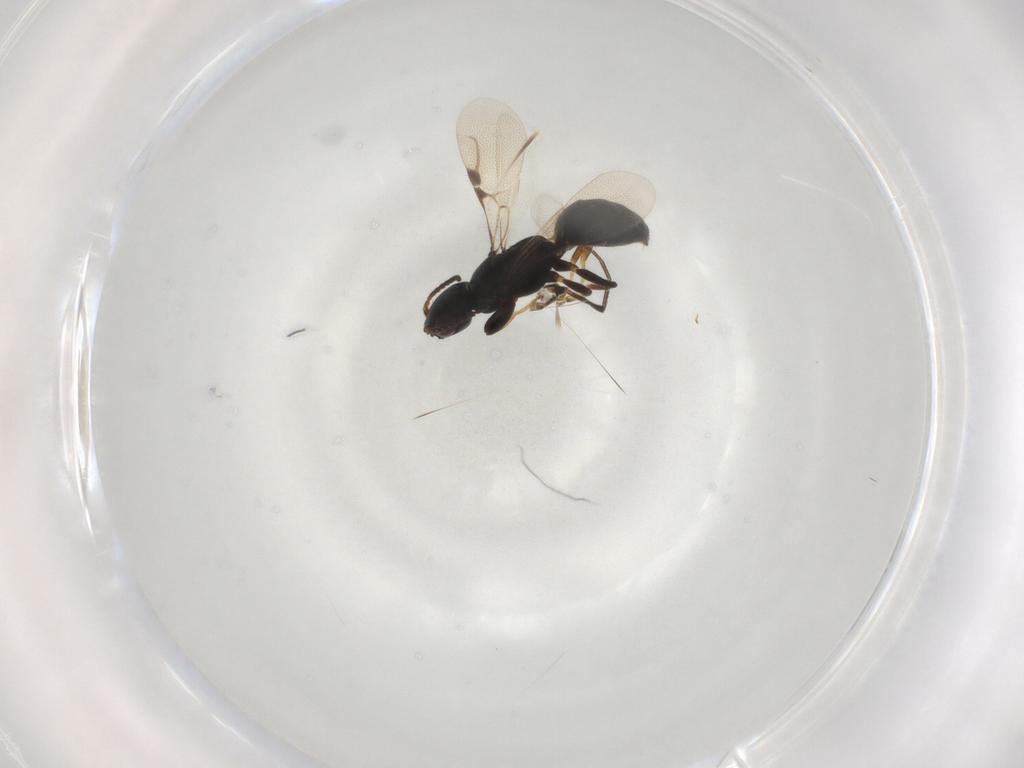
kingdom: Animalia
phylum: Arthropoda
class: Insecta
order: Hymenoptera
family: Bethylidae
